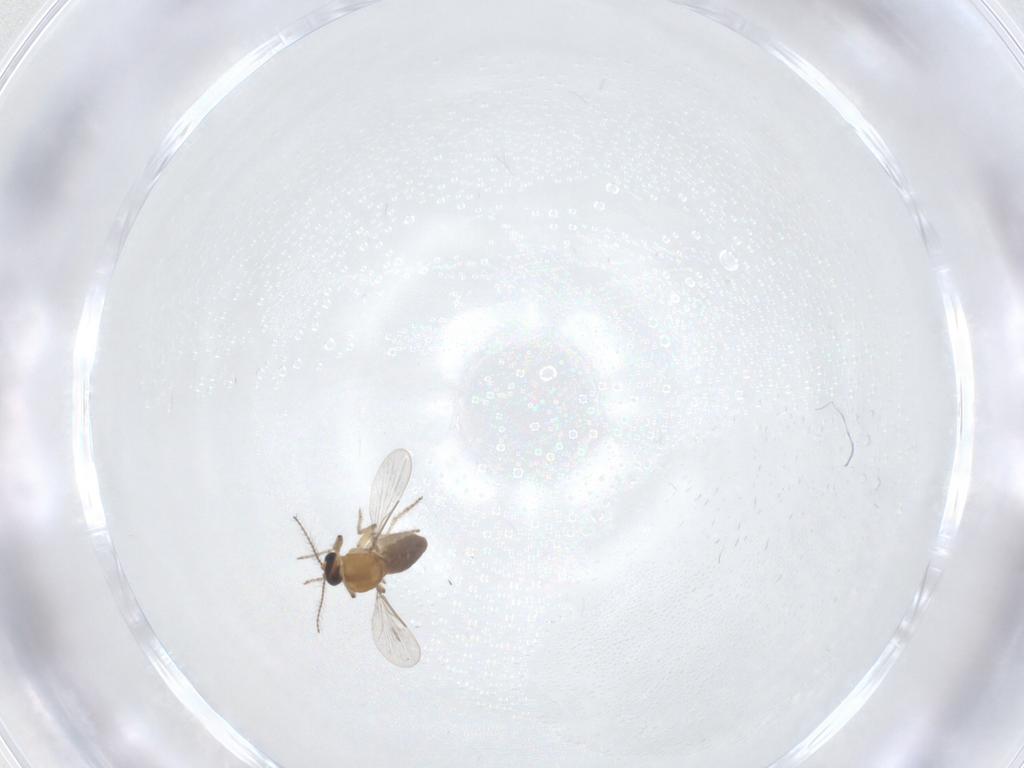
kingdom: Animalia
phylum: Arthropoda
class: Insecta
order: Diptera
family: Ceratopogonidae
